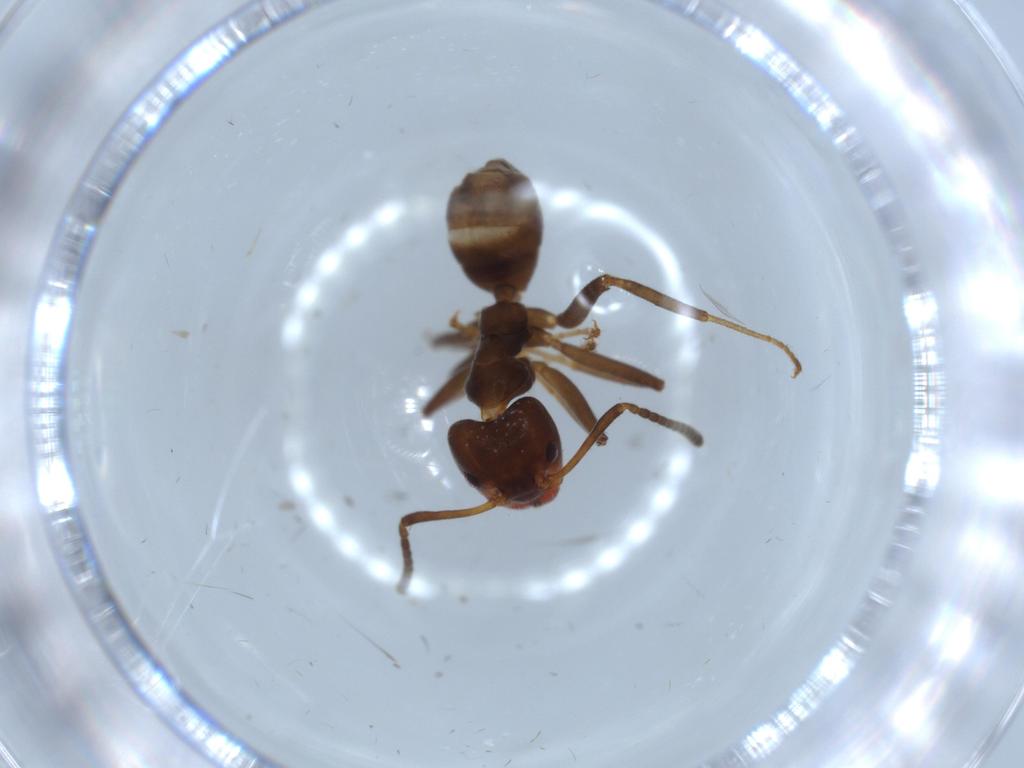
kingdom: Animalia
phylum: Arthropoda
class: Insecta
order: Hymenoptera
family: Formicidae
